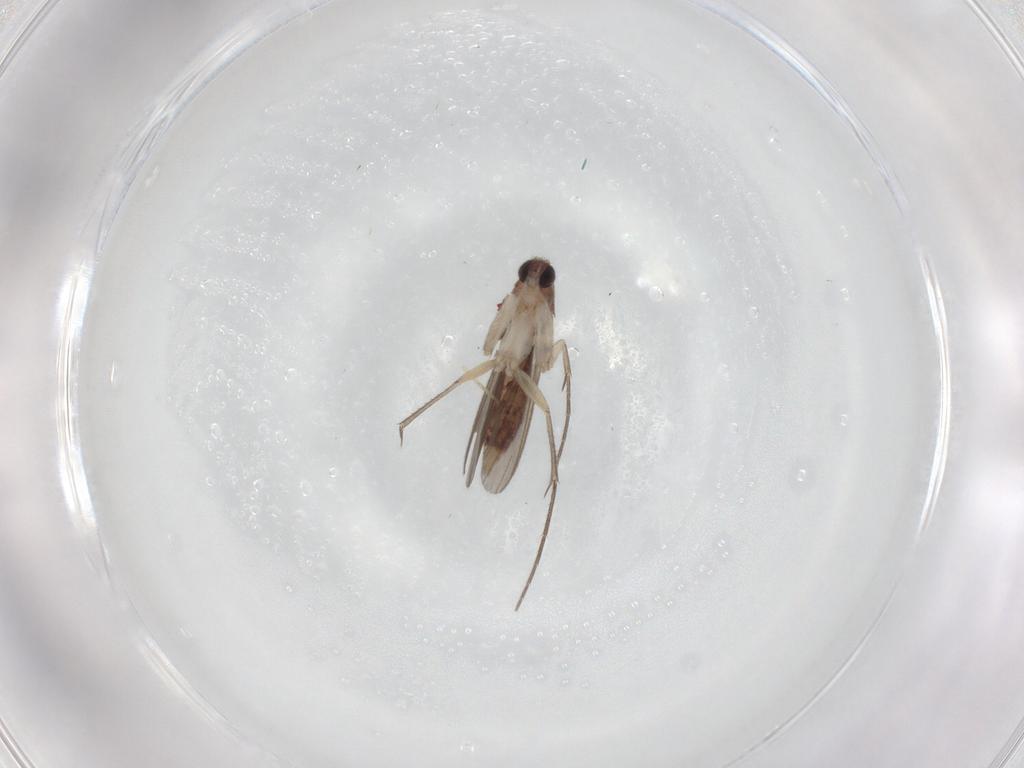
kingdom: Animalia
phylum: Arthropoda
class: Insecta
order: Diptera
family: Mycetophilidae
